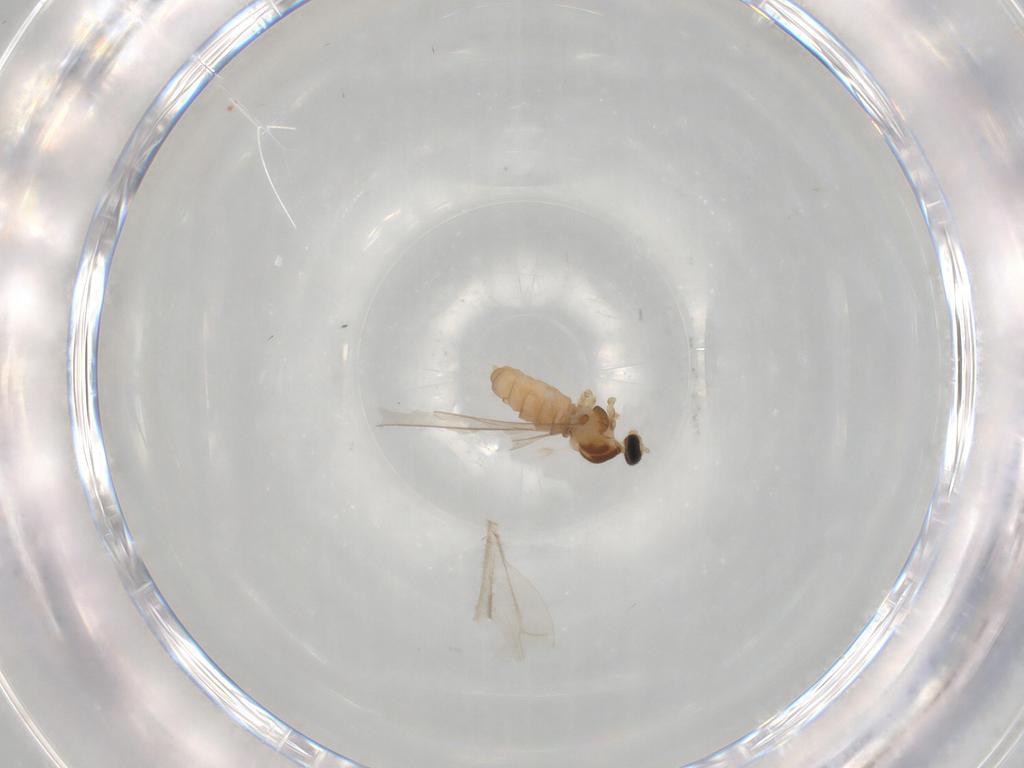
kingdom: Animalia
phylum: Arthropoda
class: Insecta
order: Diptera
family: Cecidomyiidae
